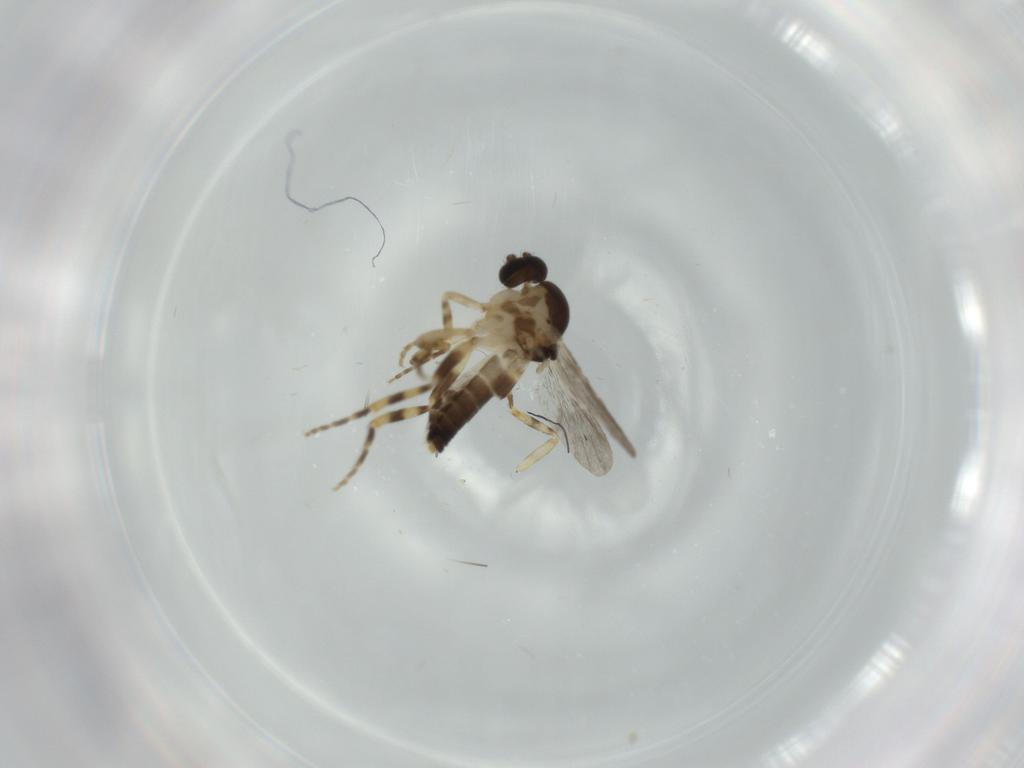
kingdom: Animalia
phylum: Arthropoda
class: Insecta
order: Diptera
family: Ceratopogonidae
